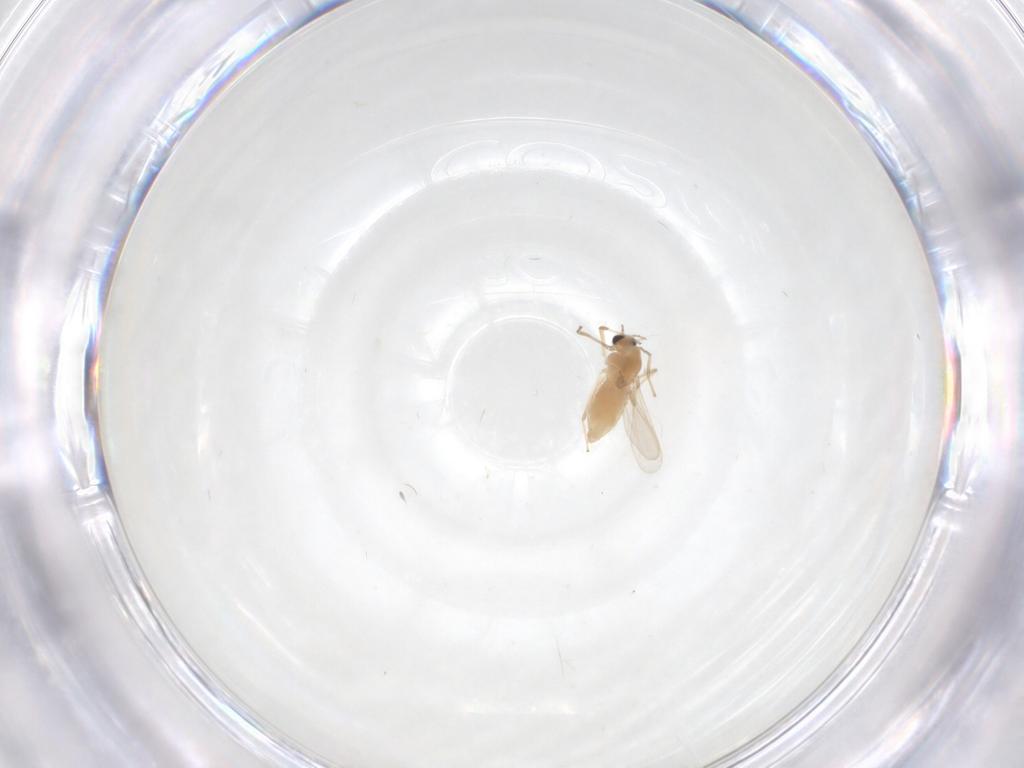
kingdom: Animalia
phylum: Arthropoda
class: Insecta
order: Diptera
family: Chironomidae
